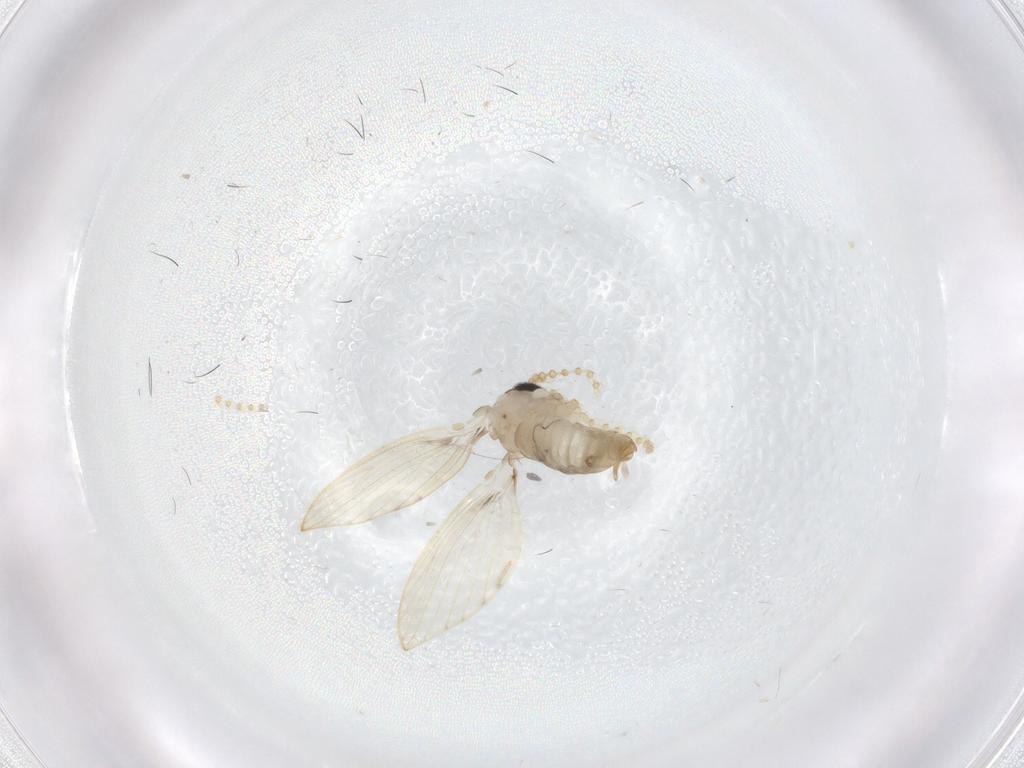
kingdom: Animalia
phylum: Arthropoda
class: Insecta
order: Diptera
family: Phoridae
